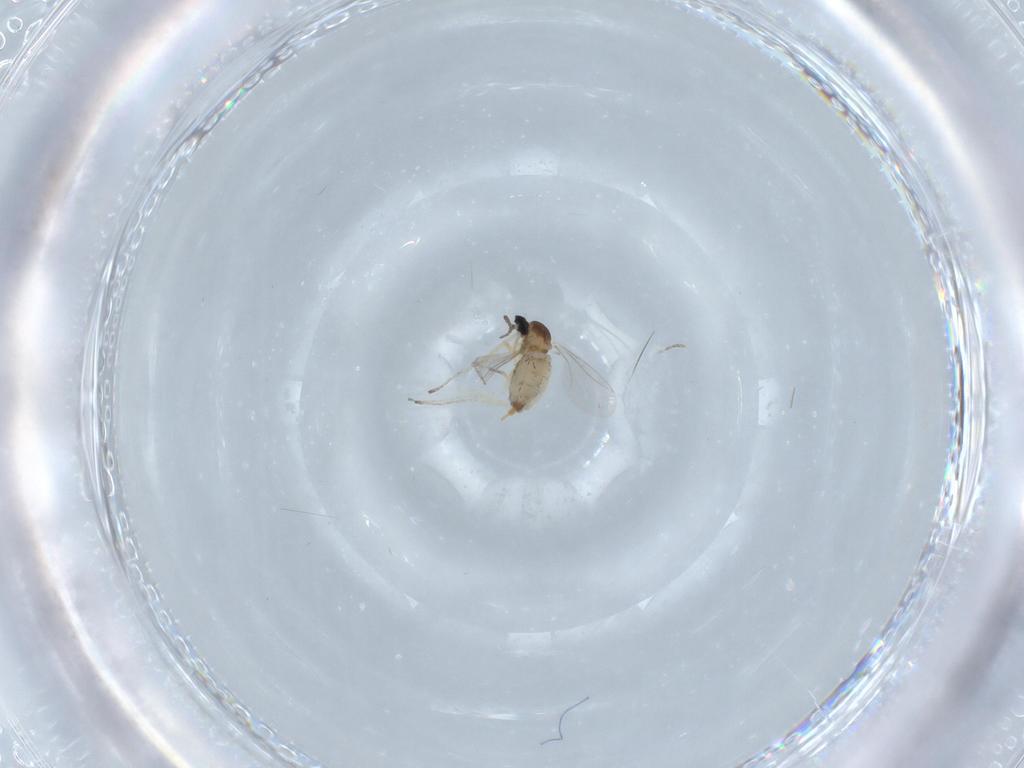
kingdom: Animalia
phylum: Arthropoda
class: Insecta
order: Diptera
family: Cecidomyiidae
